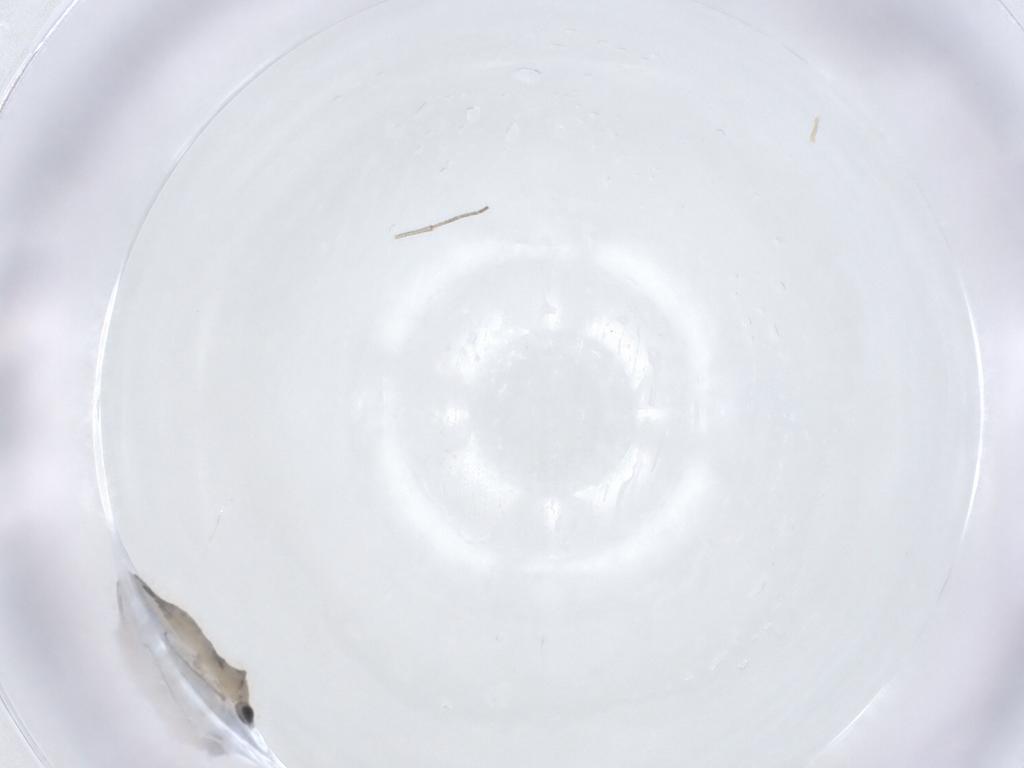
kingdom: Animalia
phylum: Arthropoda
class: Insecta
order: Diptera
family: Sciaridae
